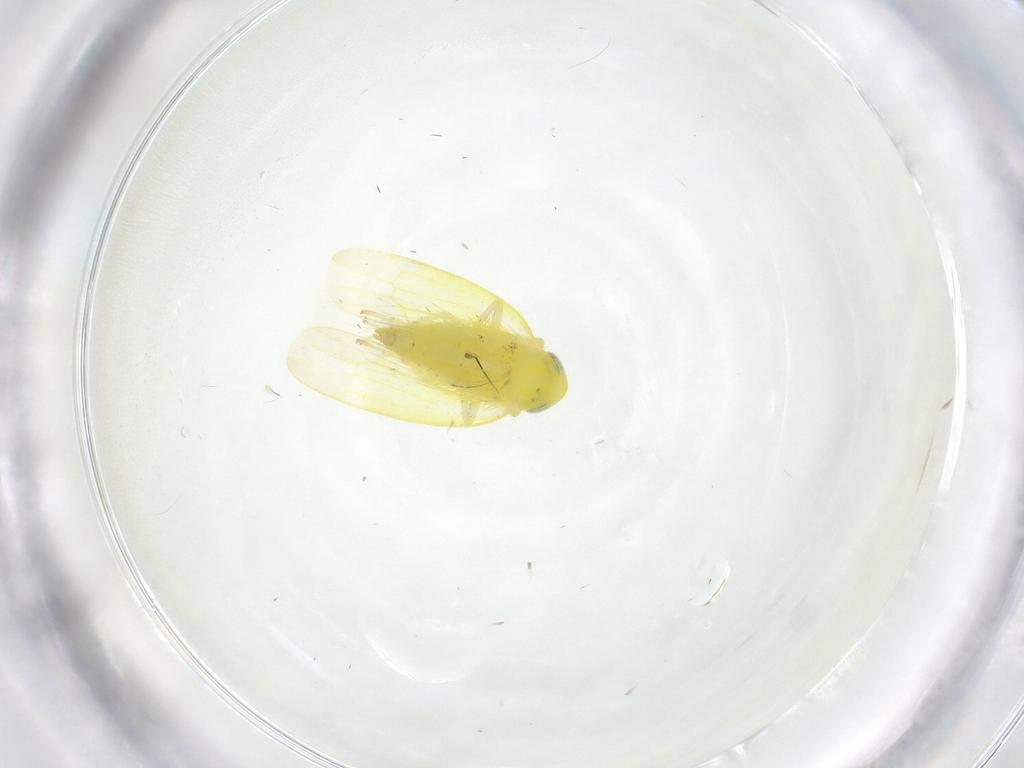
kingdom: Animalia
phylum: Arthropoda
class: Insecta
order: Hemiptera
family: Cicadellidae
